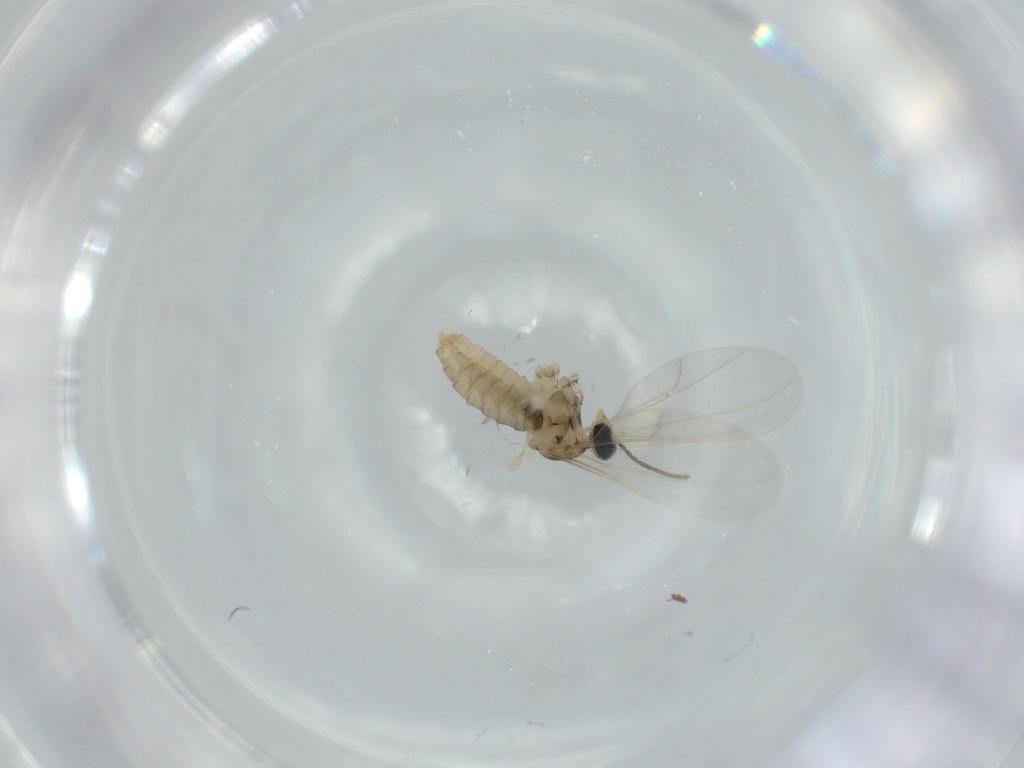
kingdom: Animalia
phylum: Arthropoda
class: Insecta
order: Diptera
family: Cecidomyiidae
